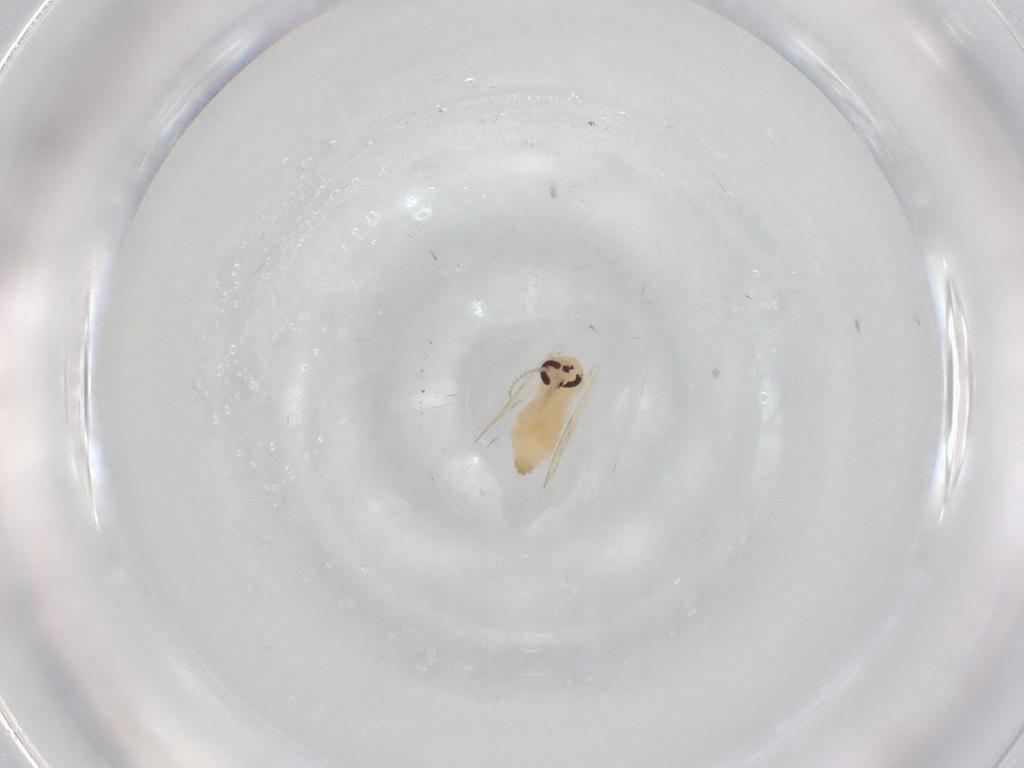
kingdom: Animalia
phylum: Arthropoda
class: Insecta
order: Diptera
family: Psychodidae
